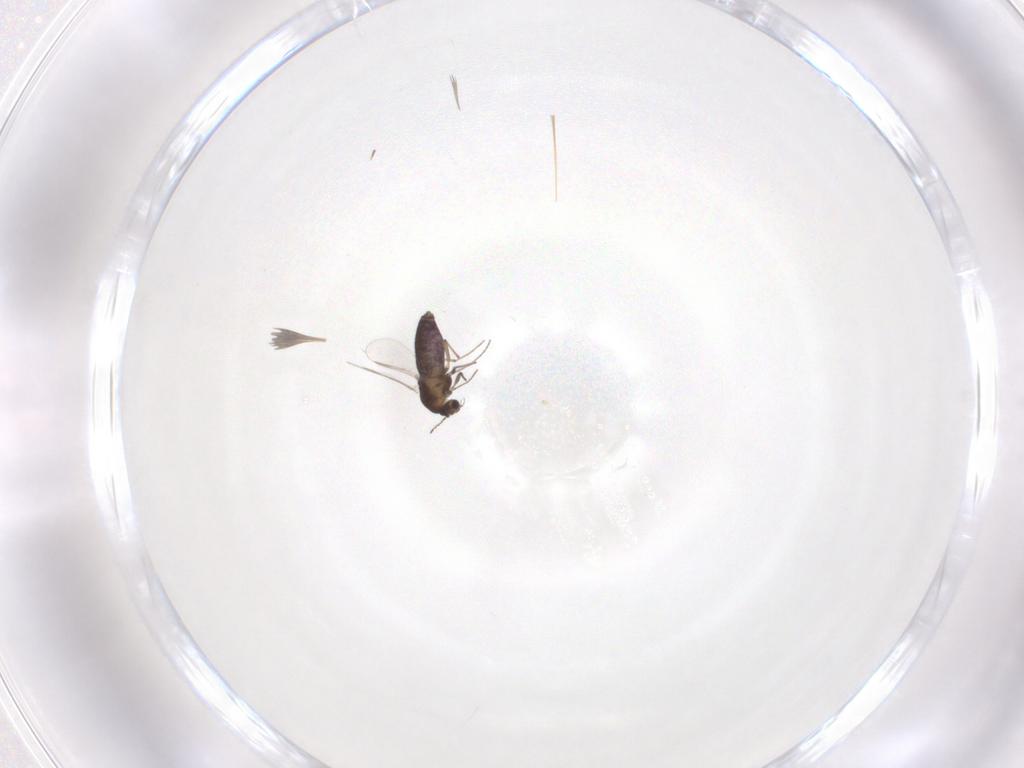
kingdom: Animalia
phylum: Arthropoda
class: Insecta
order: Diptera
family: Chironomidae
